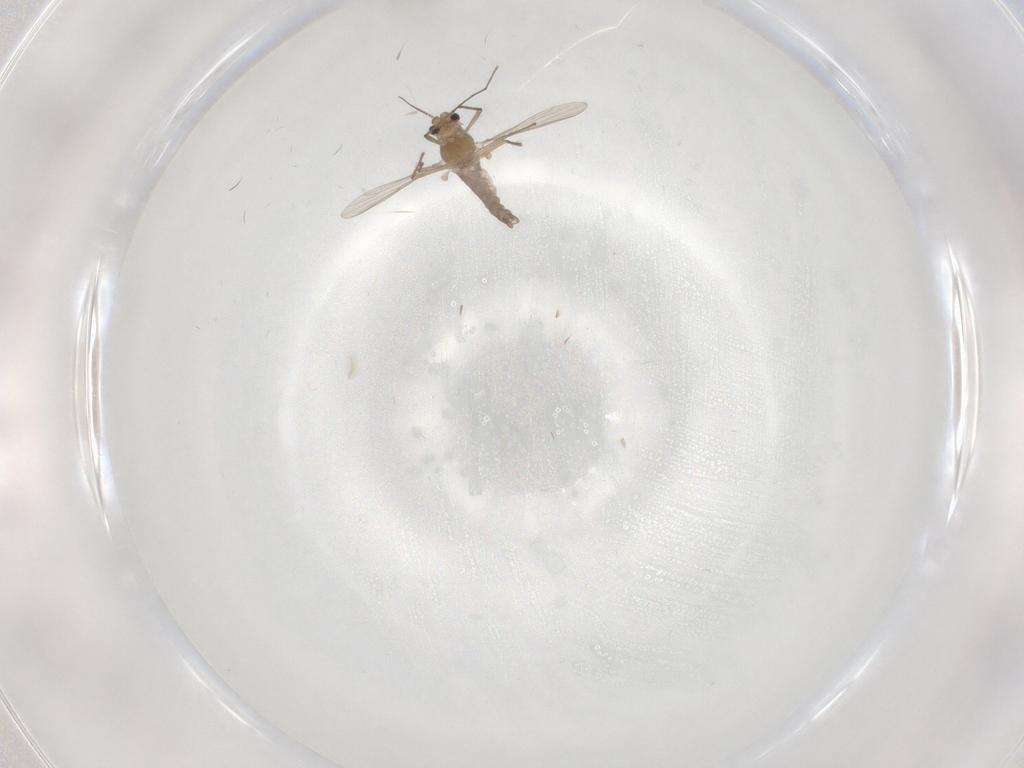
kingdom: Animalia
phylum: Arthropoda
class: Insecta
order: Diptera
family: Chironomidae
